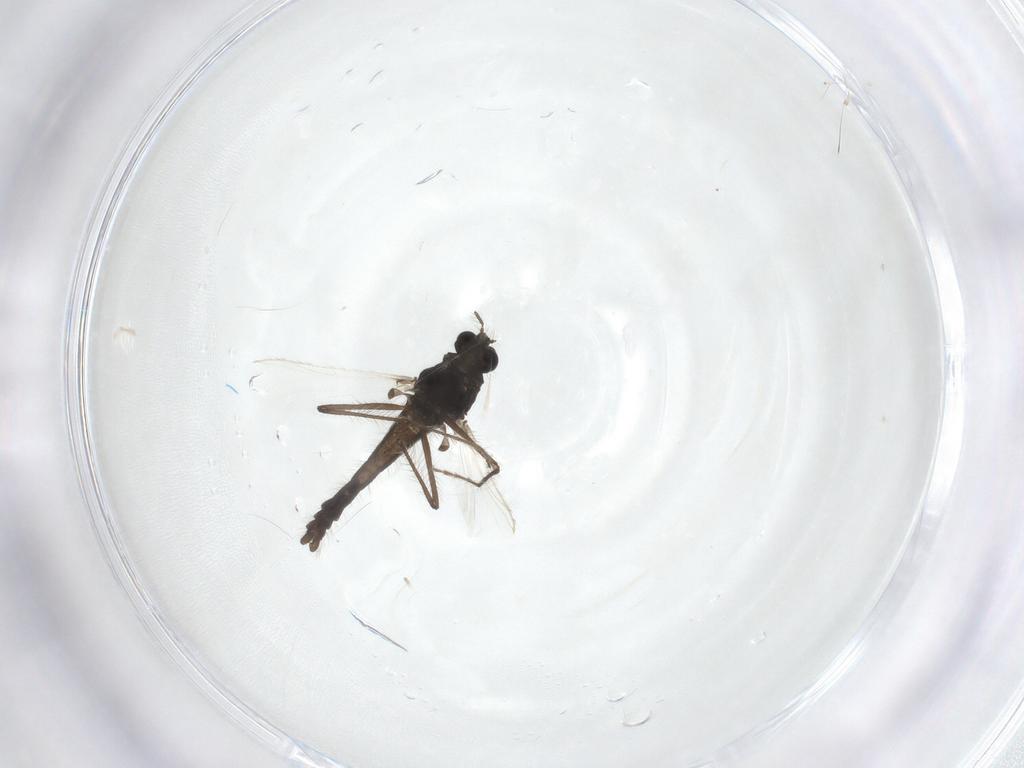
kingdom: Animalia
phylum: Arthropoda
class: Insecta
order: Diptera
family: Chironomidae
